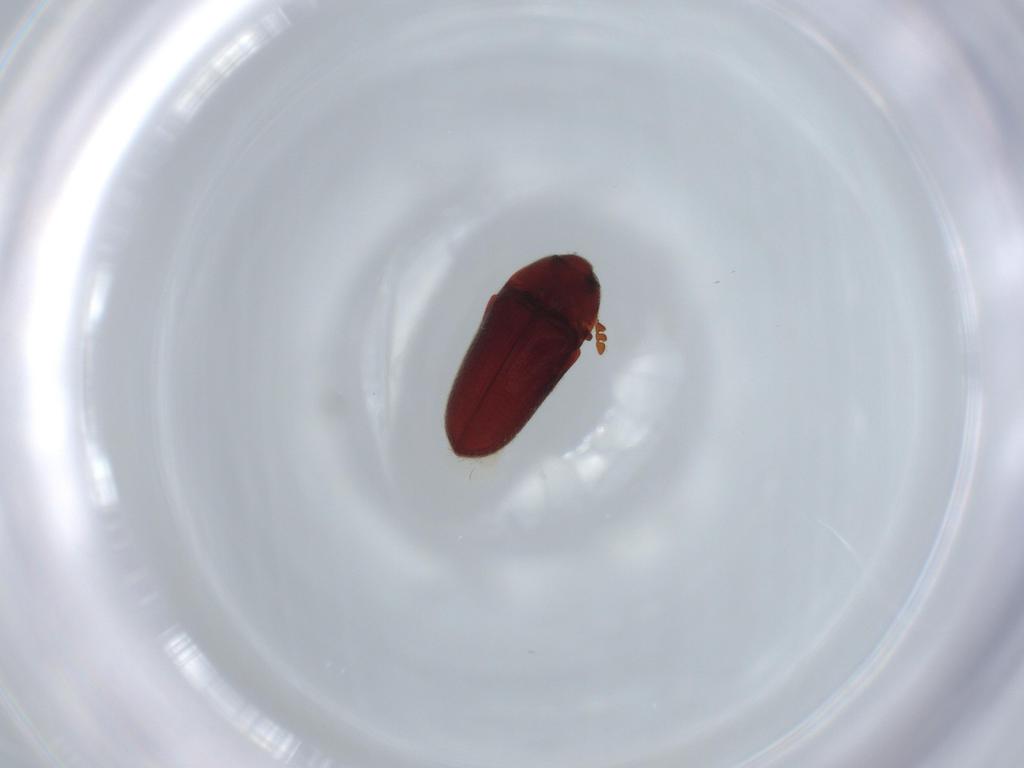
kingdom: Animalia
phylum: Arthropoda
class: Insecta
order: Coleoptera
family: Throscidae
